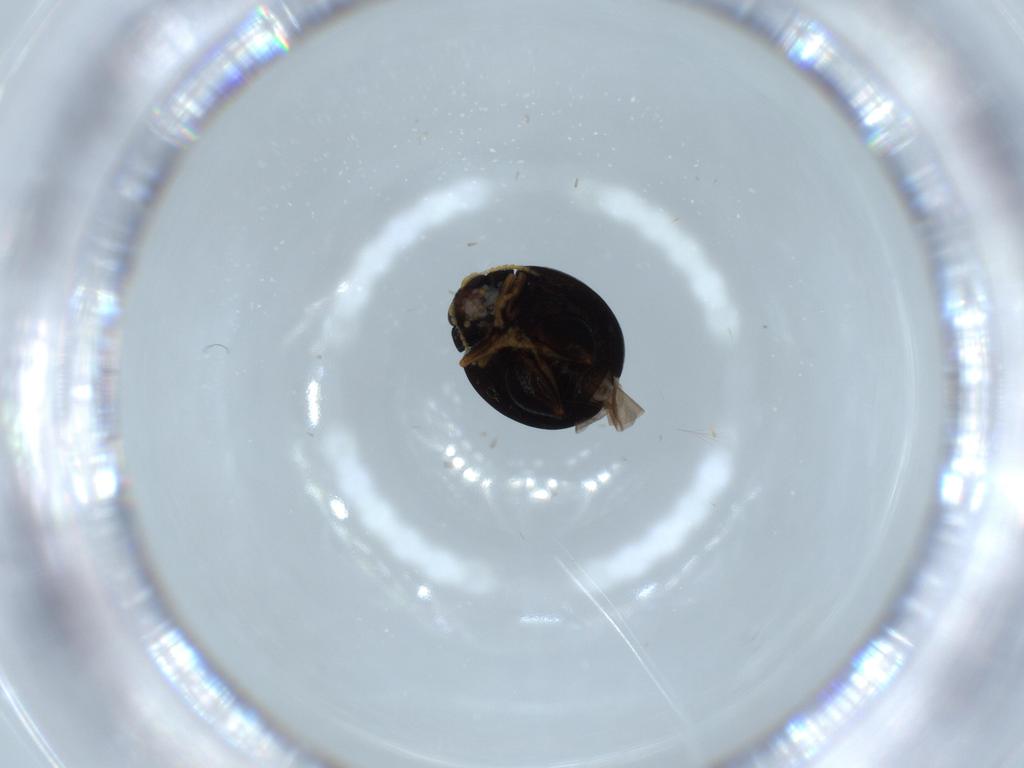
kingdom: Animalia
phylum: Arthropoda
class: Insecta
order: Coleoptera
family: Chrysomelidae
